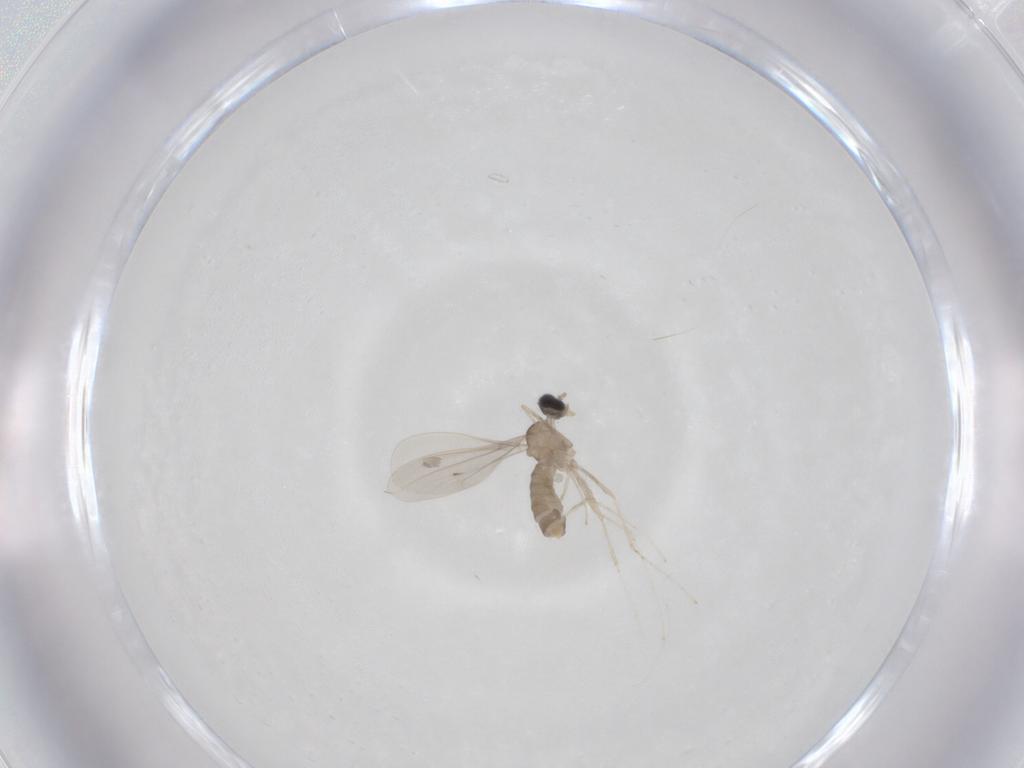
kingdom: Animalia
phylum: Arthropoda
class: Insecta
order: Diptera
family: Cecidomyiidae
